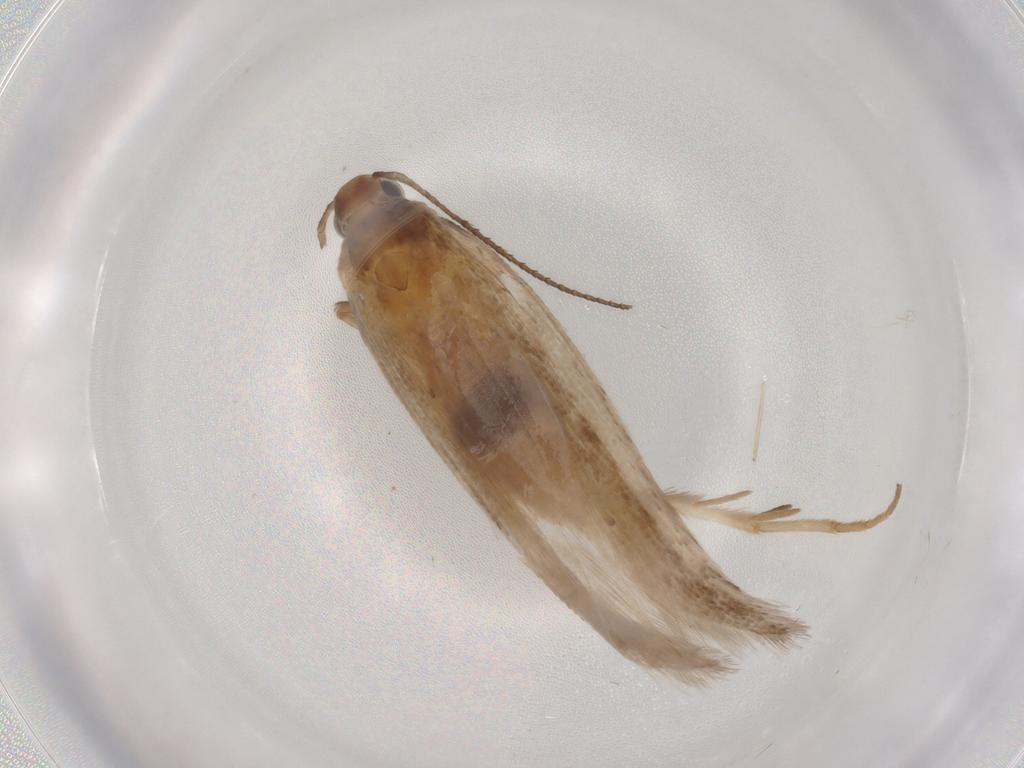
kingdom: Animalia
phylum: Arthropoda
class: Insecta
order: Lepidoptera
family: Gelechiidae
